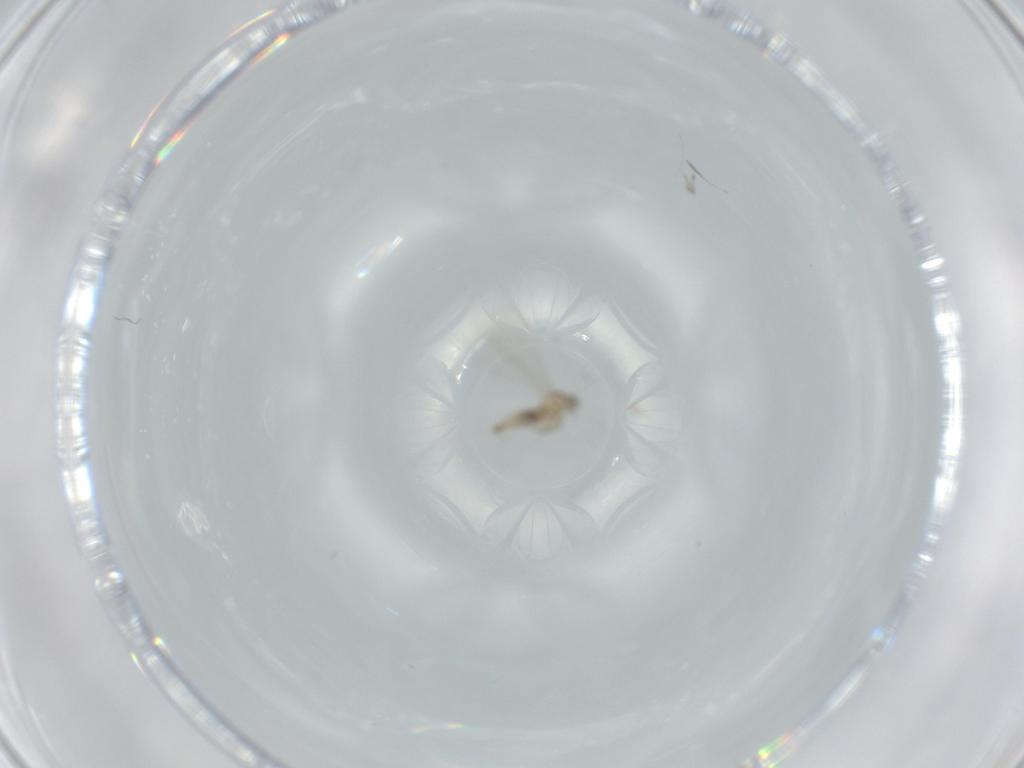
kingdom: Animalia
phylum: Arthropoda
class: Insecta
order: Diptera
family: Cecidomyiidae
